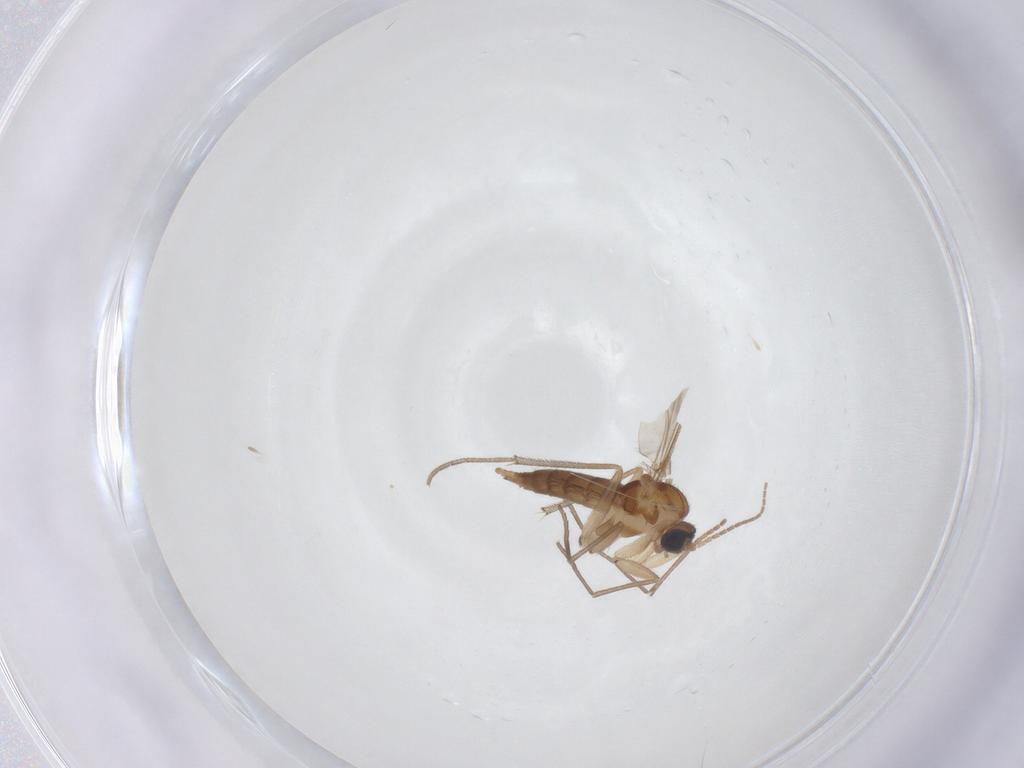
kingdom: Animalia
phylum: Arthropoda
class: Insecta
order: Diptera
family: Sciaridae
